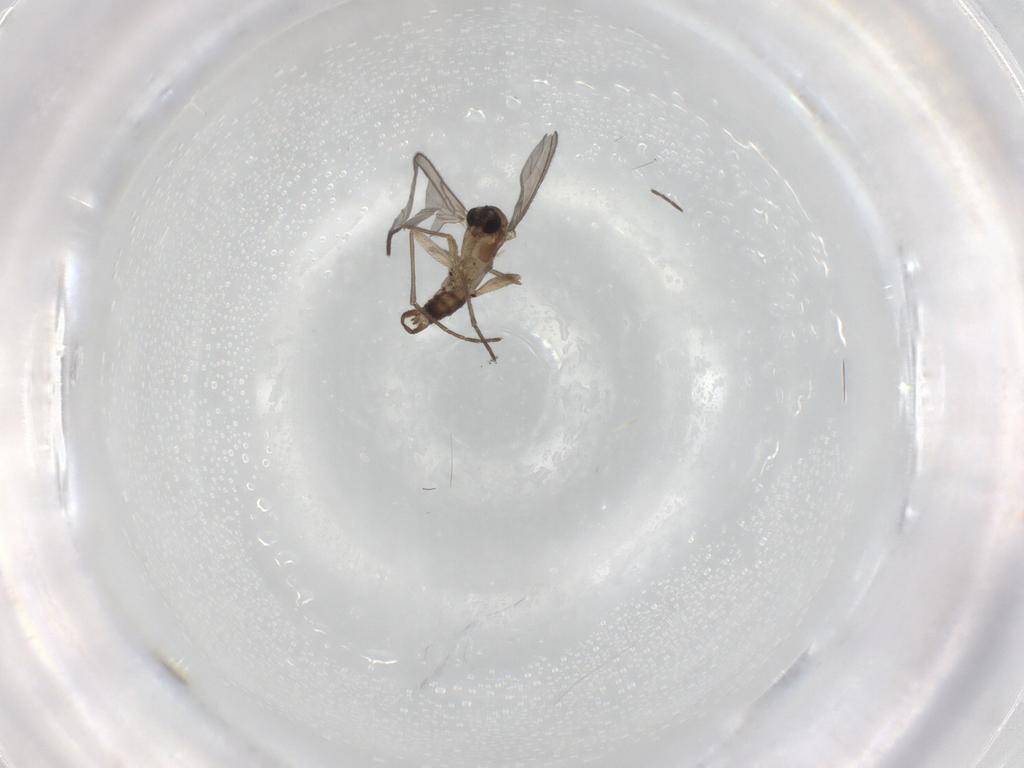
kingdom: Animalia
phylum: Arthropoda
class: Insecta
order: Diptera
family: Sciaridae
